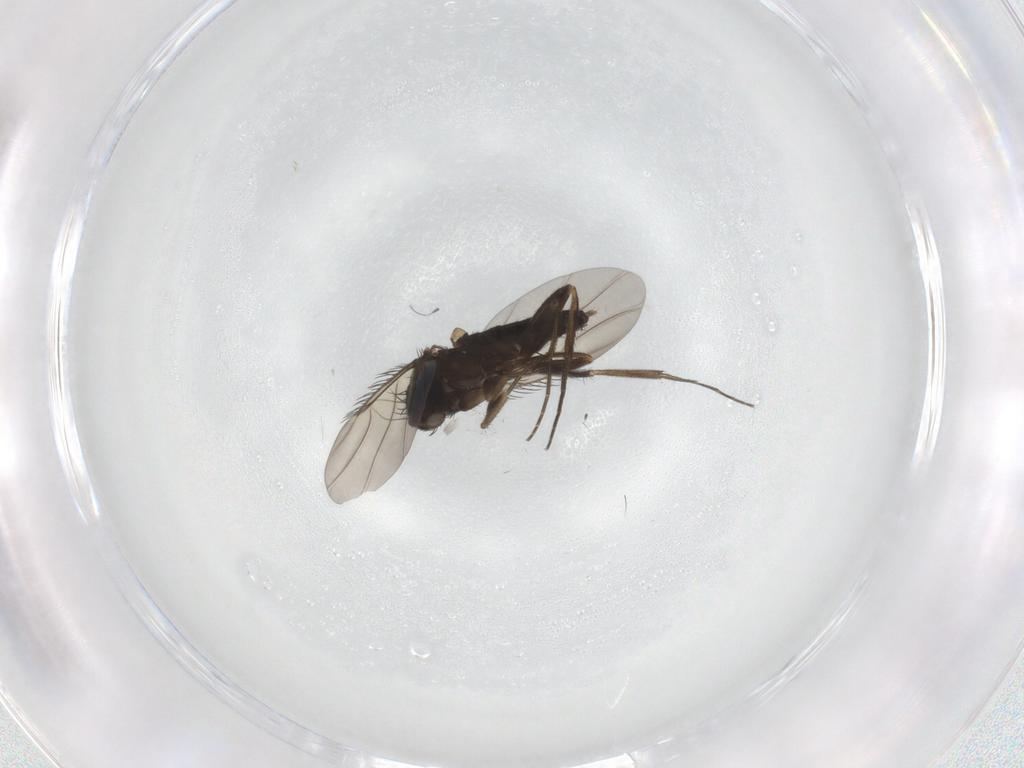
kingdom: Animalia
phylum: Arthropoda
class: Insecta
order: Diptera
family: Phoridae
